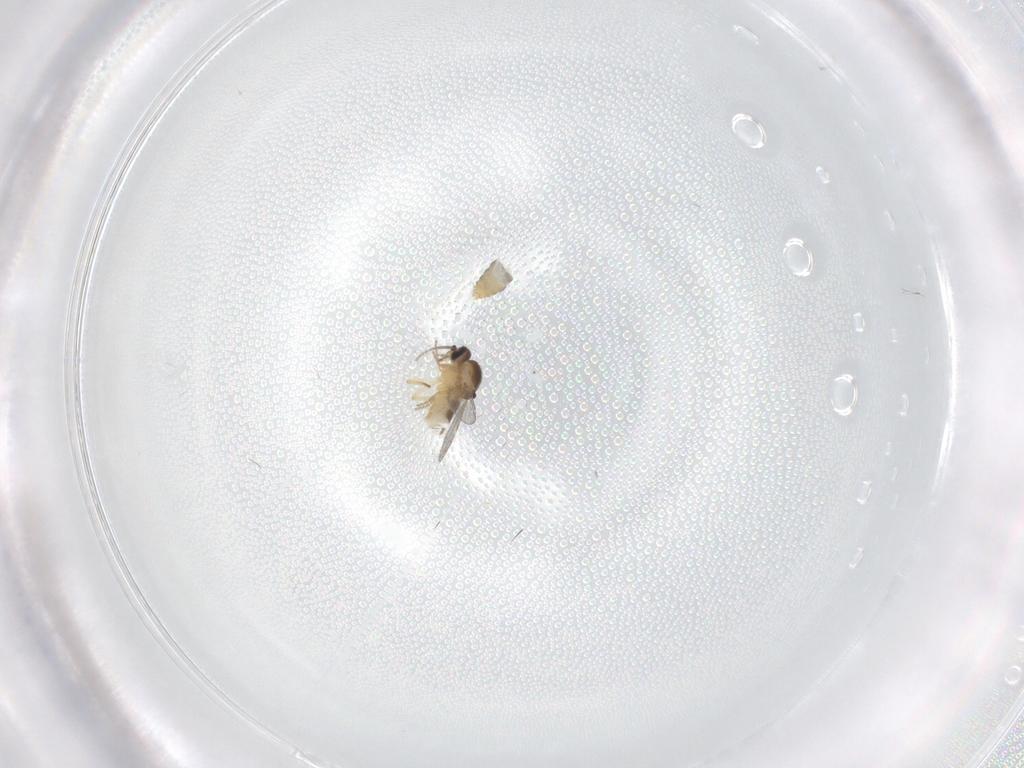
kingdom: Animalia
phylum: Arthropoda
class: Insecta
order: Diptera
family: Ceratopogonidae
